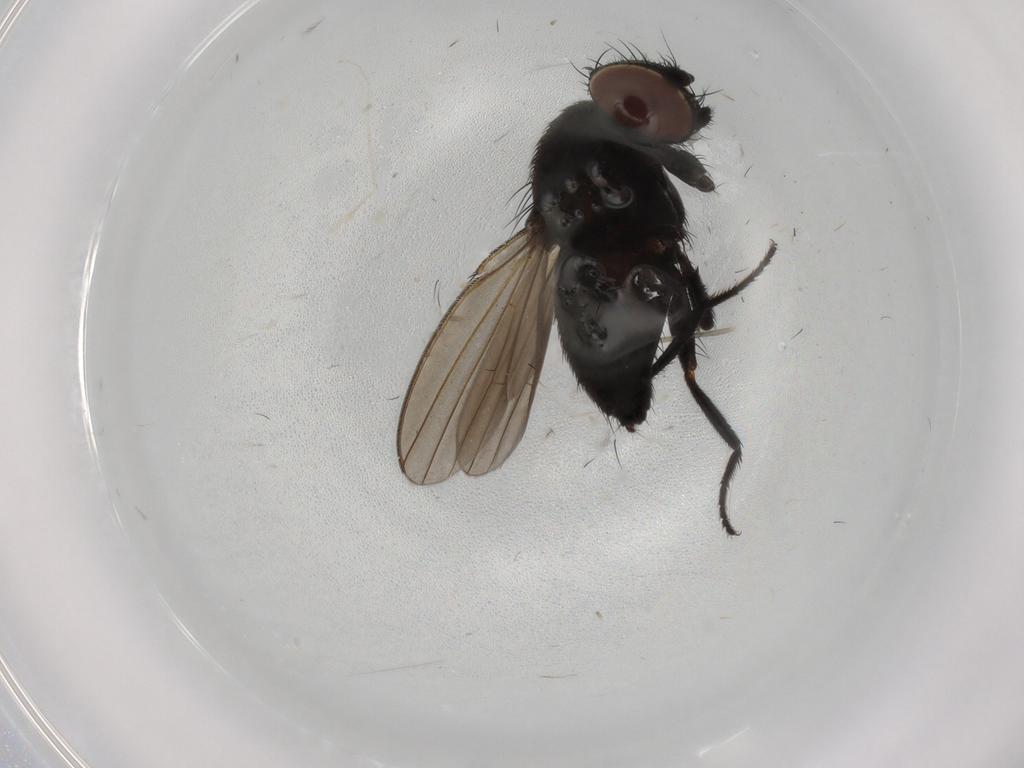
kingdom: Animalia
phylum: Arthropoda
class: Insecta
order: Diptera
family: Milichiidae
